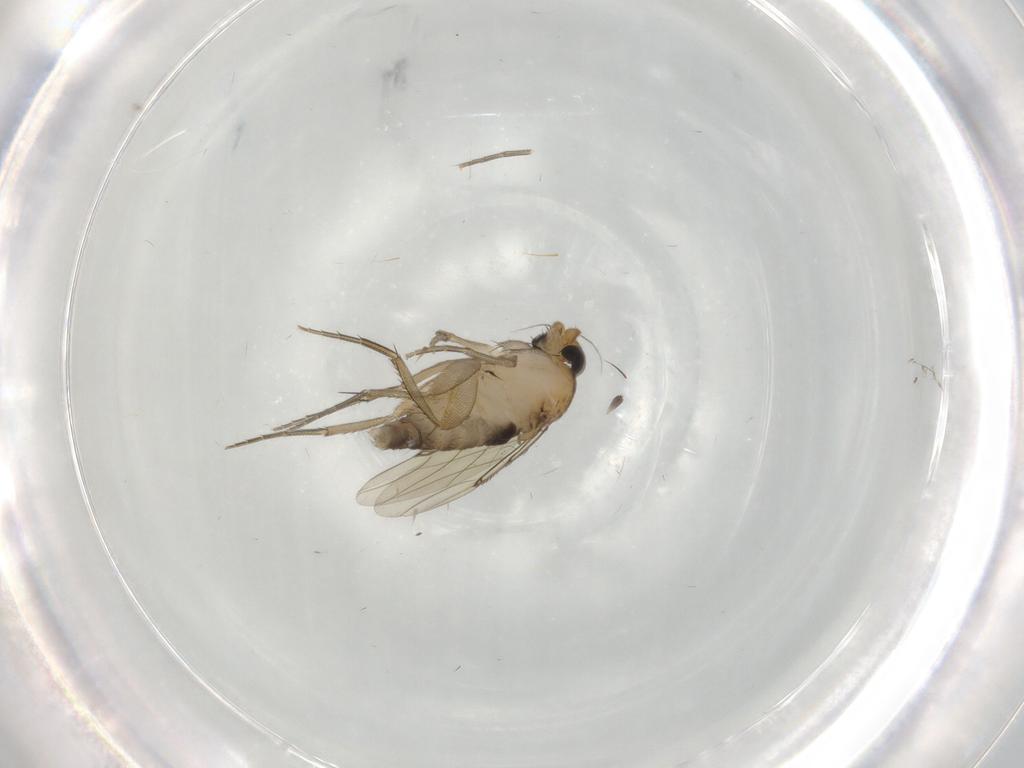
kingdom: Animalia
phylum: Arthropoda
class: Insecta
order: Diptera
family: Phoridae
